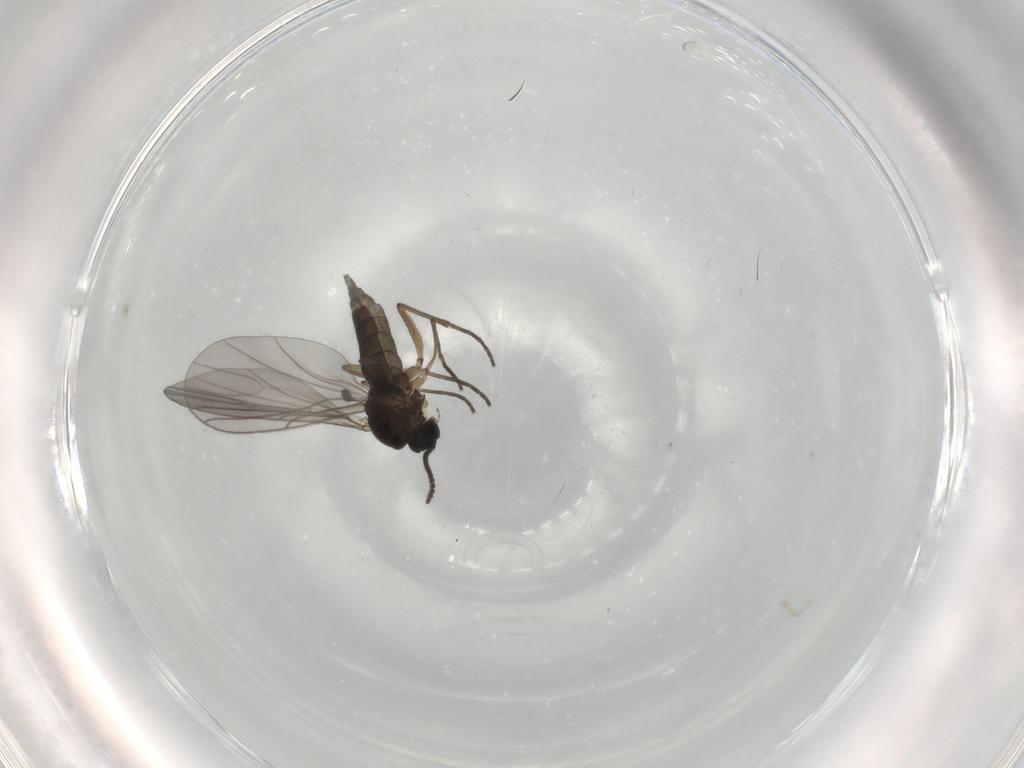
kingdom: Animalia
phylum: Arthropoda
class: Insecta
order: Diptera
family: Sciaridae
